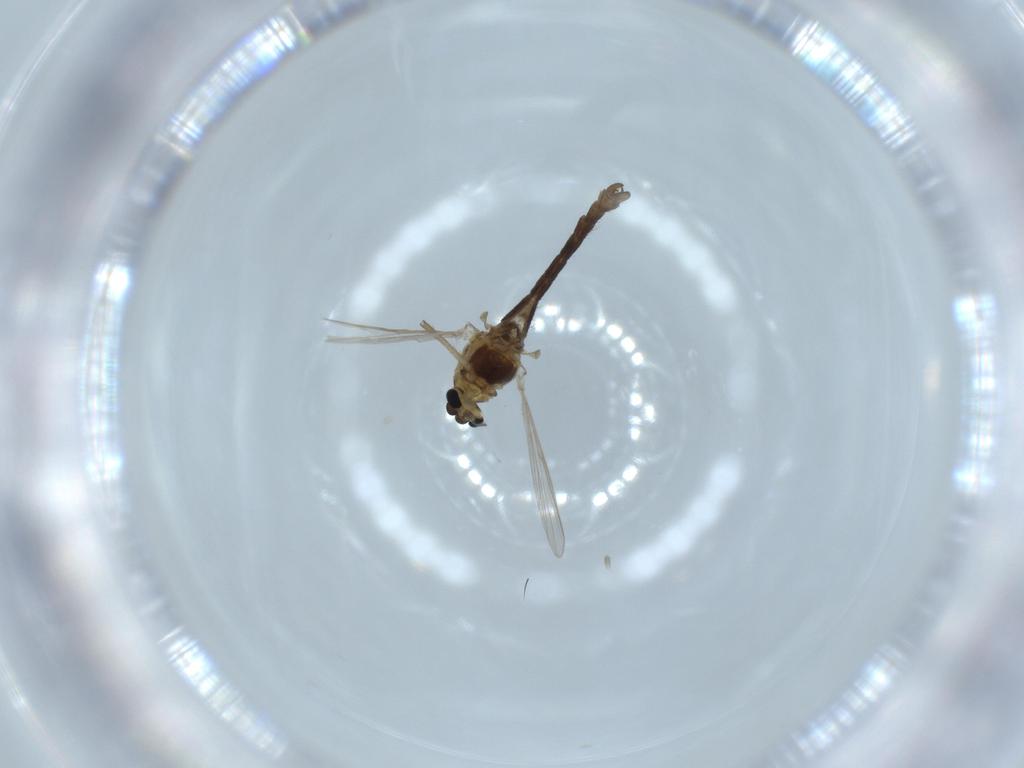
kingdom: Animalia
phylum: Arthropoda
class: Insecta
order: Diptera
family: Chironomidae
